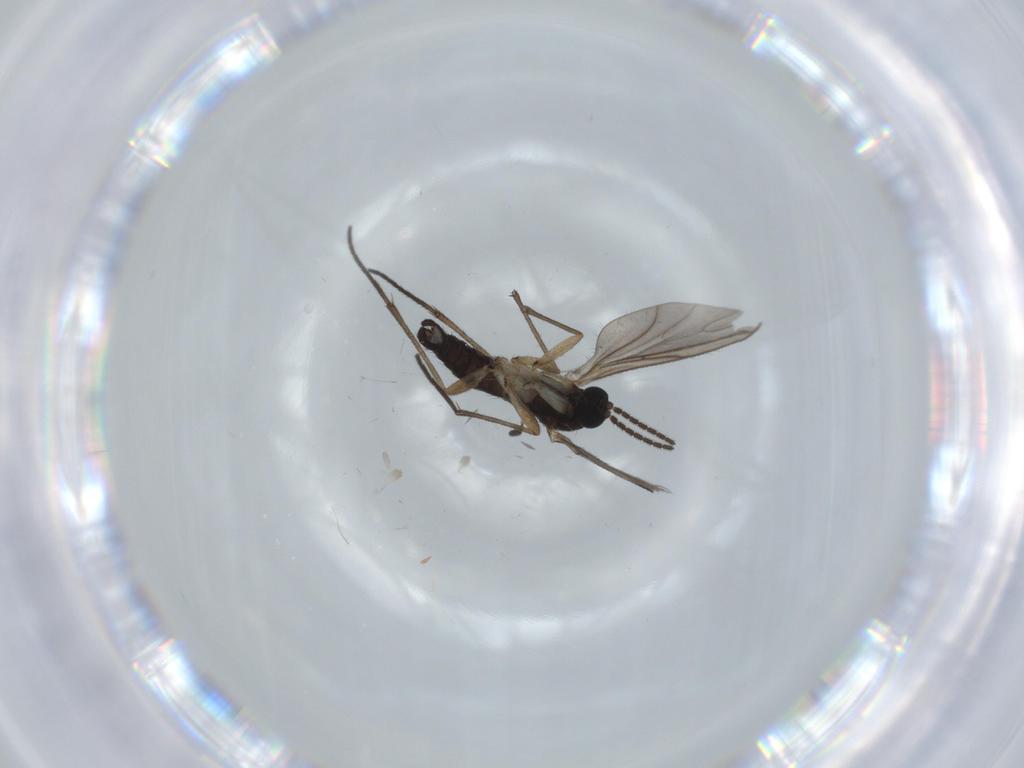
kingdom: Animalia
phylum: Arthropoda
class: Insecta
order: Diptera
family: Sciaridae
